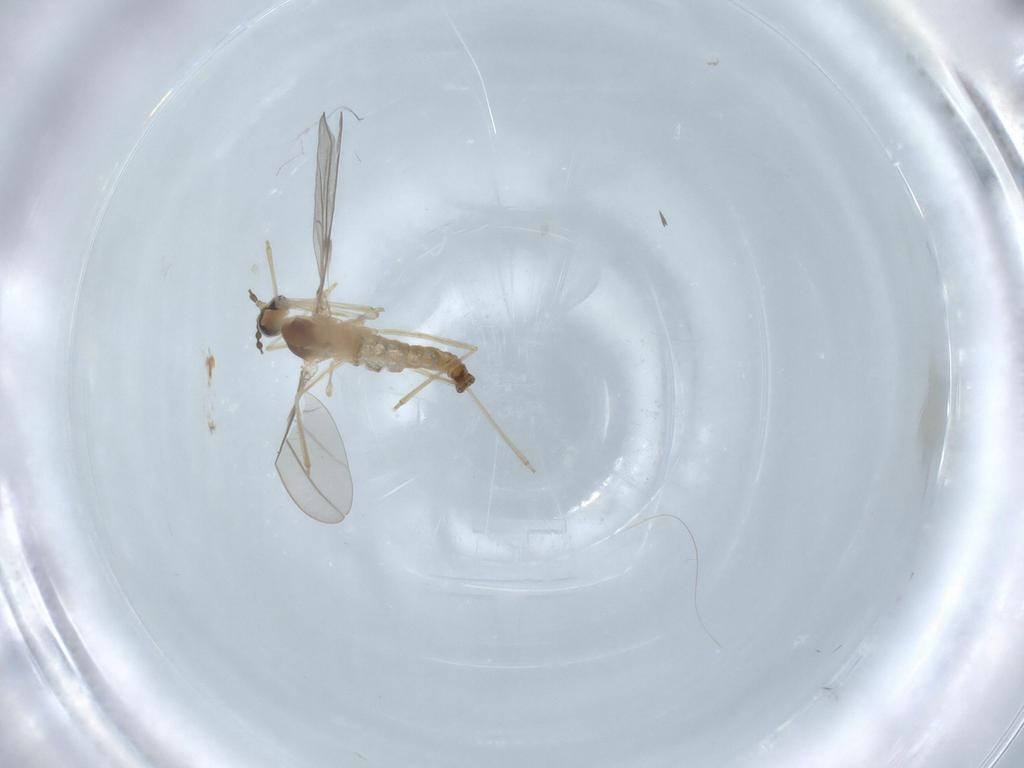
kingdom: Animalia
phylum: Arthropoda
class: Insecta
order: Diptera
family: Cecidomyiidae
